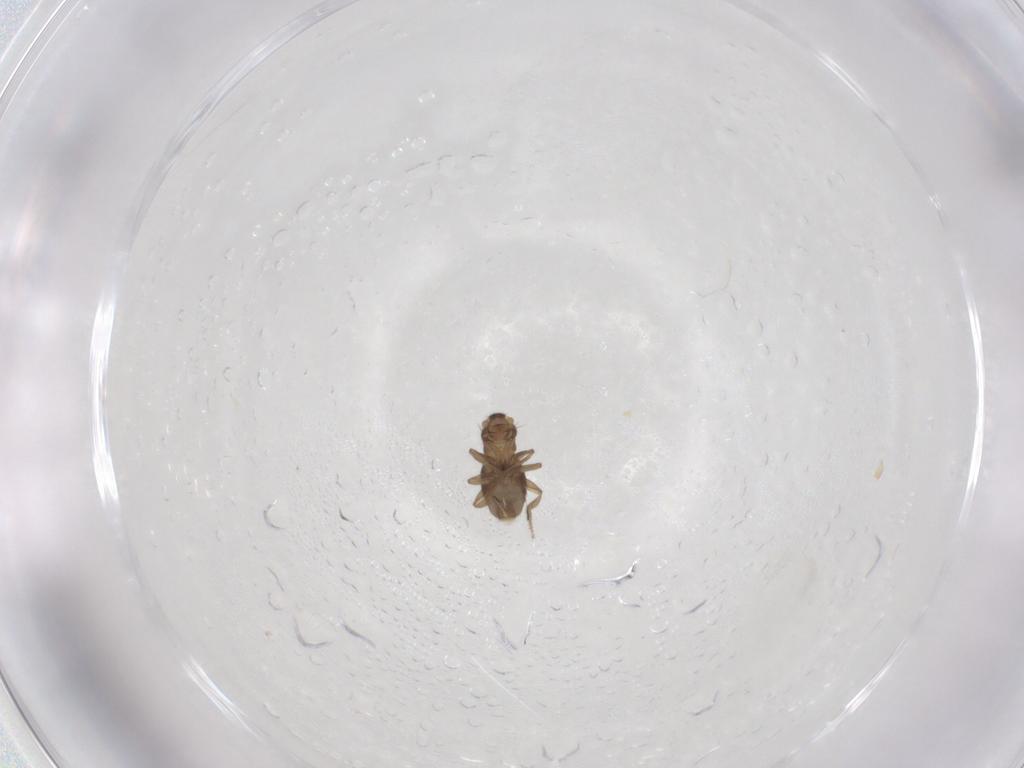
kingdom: Animalia
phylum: Arthropoda
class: Insecta
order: Diptera
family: Phoridae
